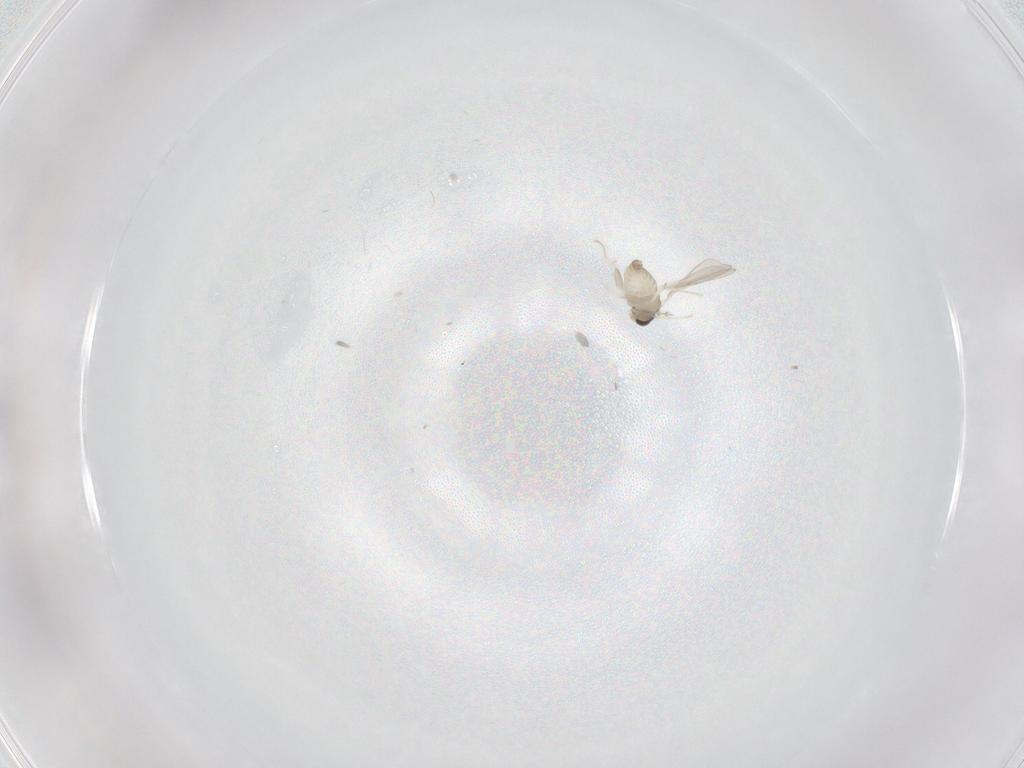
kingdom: Animalia
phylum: Arthropoda
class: Insecta
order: Diptera
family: Cecidomyiidae
